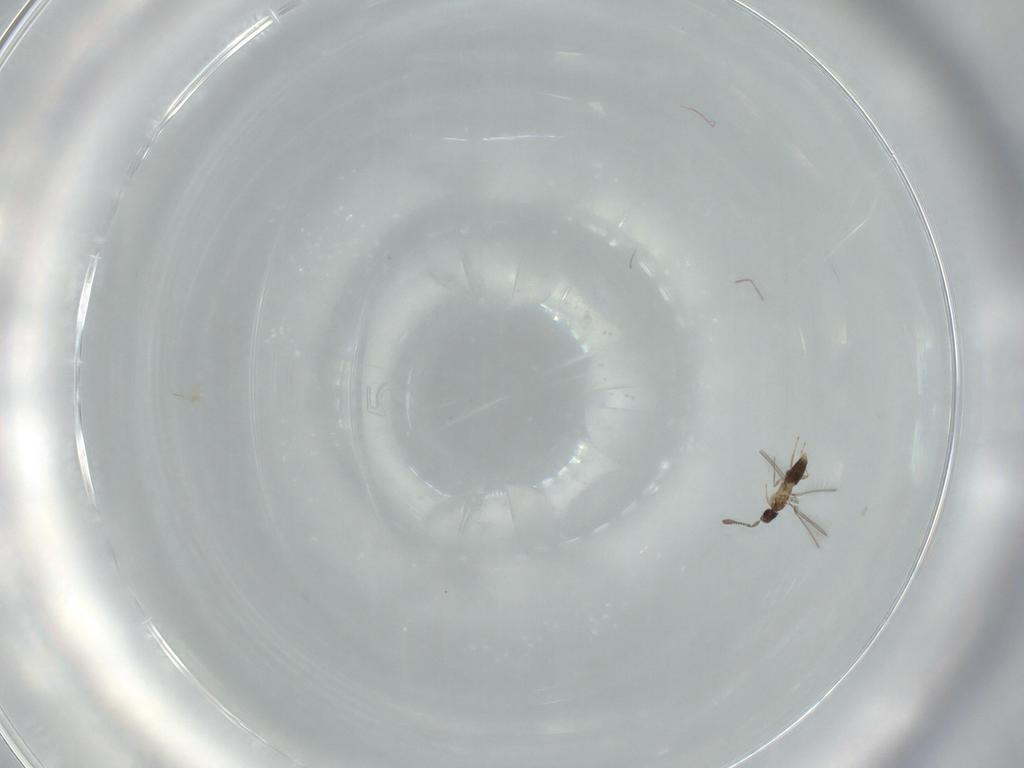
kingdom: Animalia
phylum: Arthropoda
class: Insecta
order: Hymenoptera
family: Mymaridae
